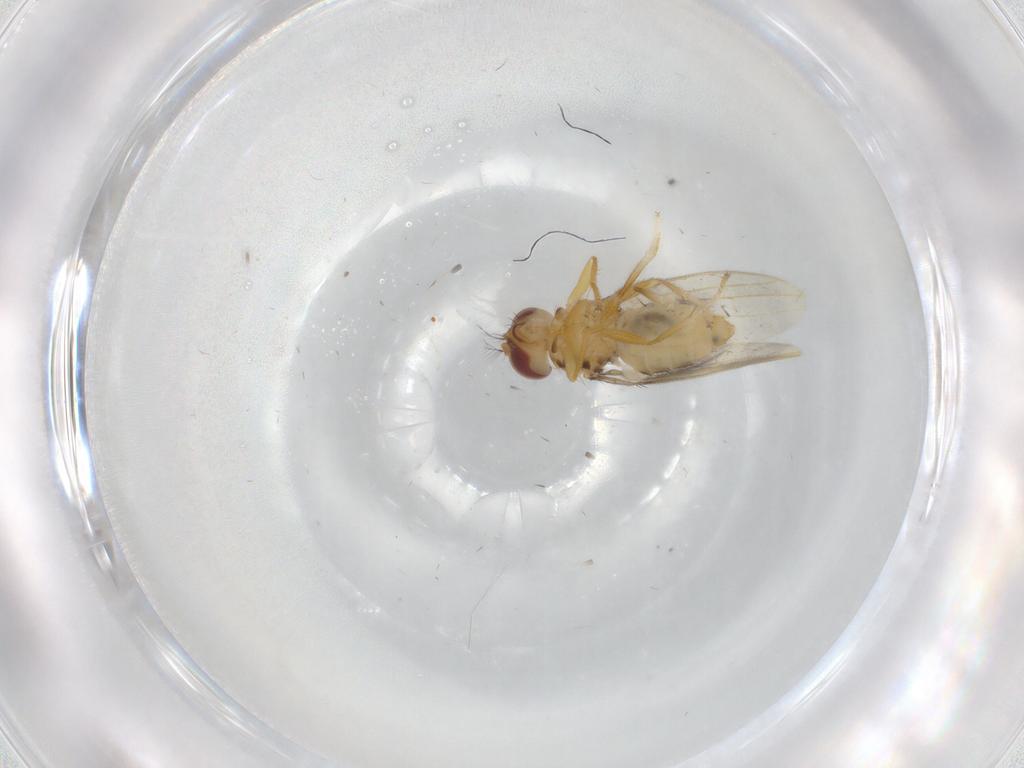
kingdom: Animalia
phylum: Arthropoda
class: Insecta
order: Diptera
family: Periscelididae
